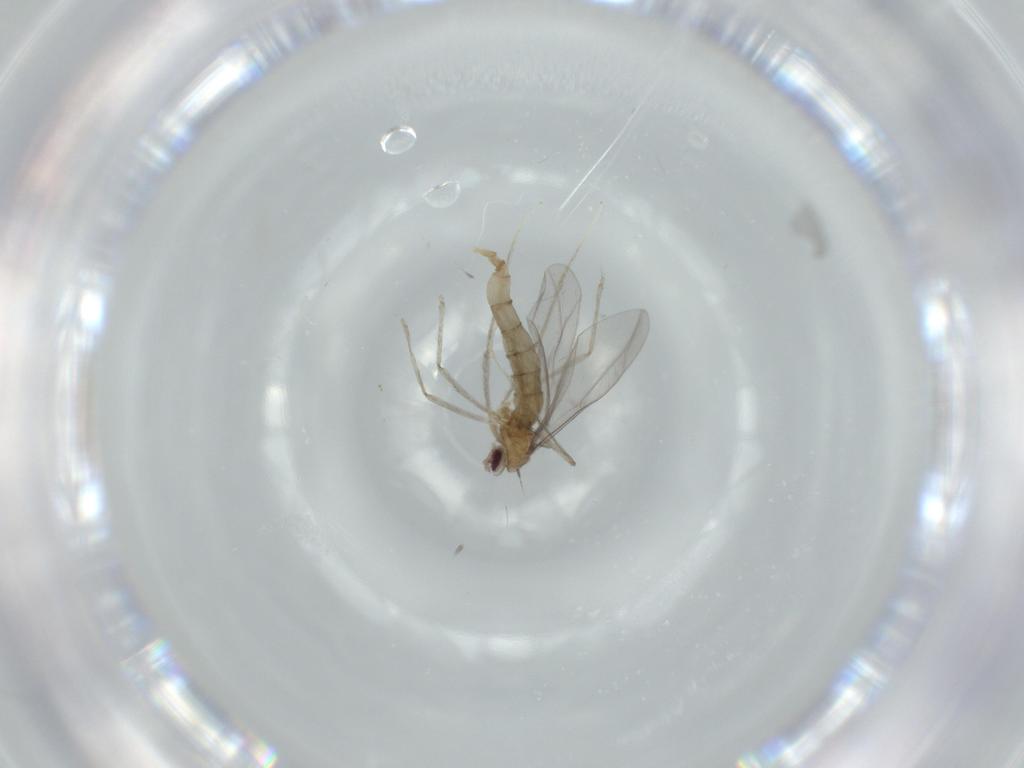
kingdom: Animalia
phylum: Arthropoda
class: Insecta
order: Diptera
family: Cecidomyiidae
